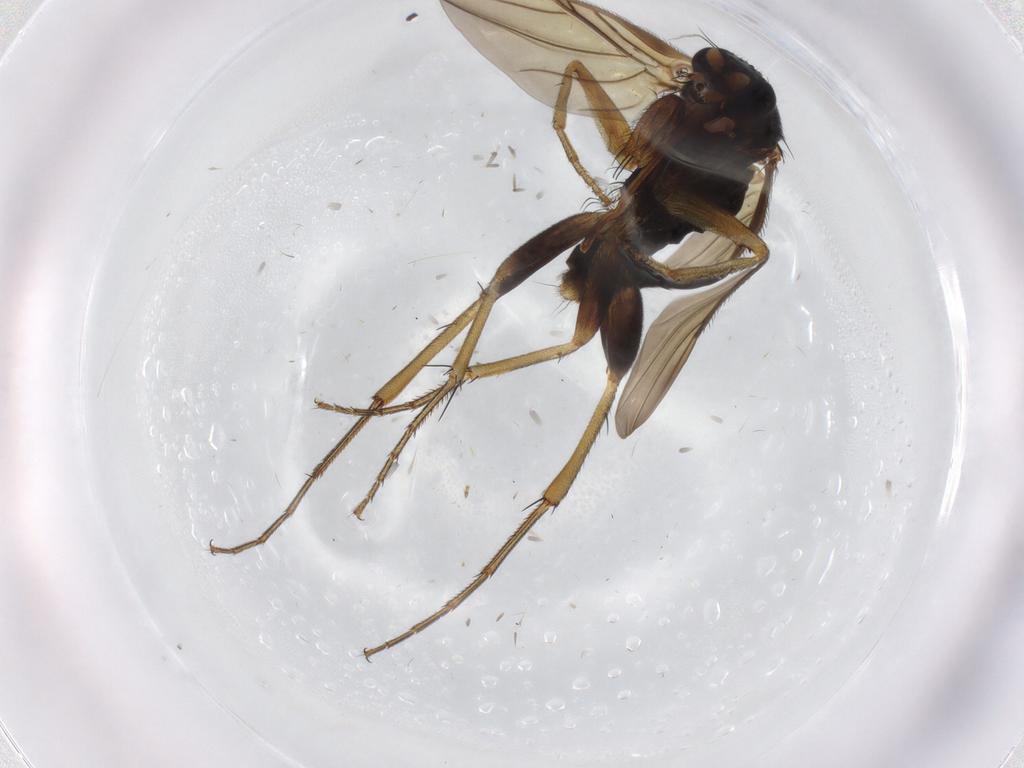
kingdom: Animalia
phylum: Arthropoda
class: Insecta
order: Diptera
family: Phoridae
